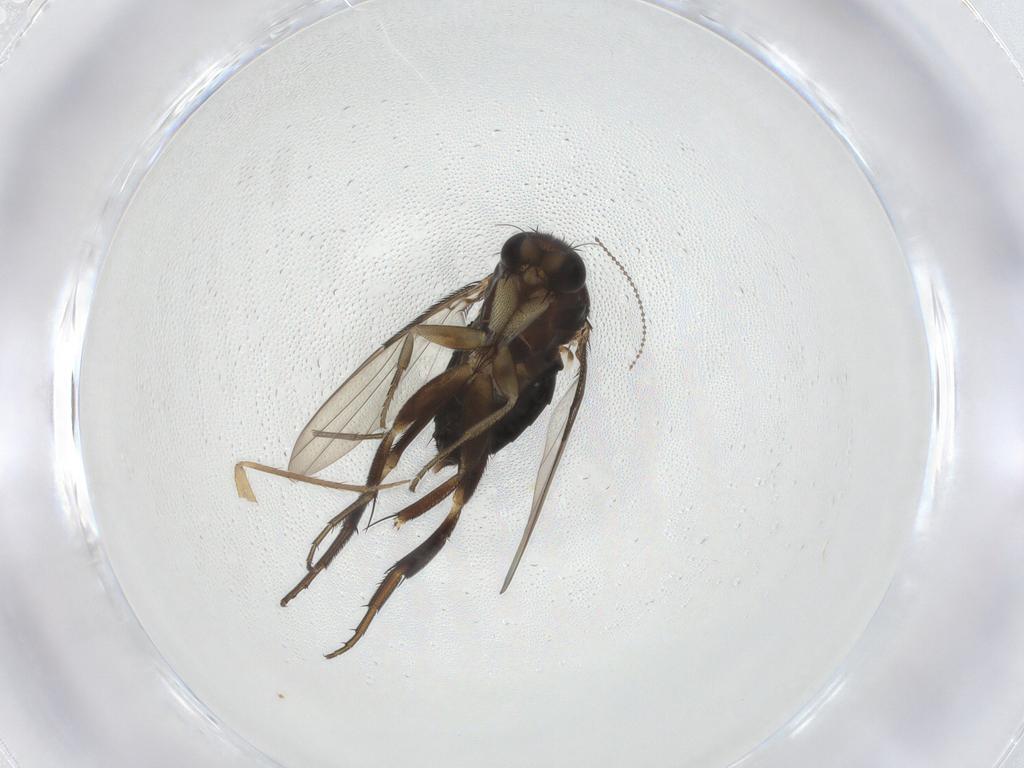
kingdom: Animalia
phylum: Arthropoda
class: Insecta
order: Diptera
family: Phoridae
